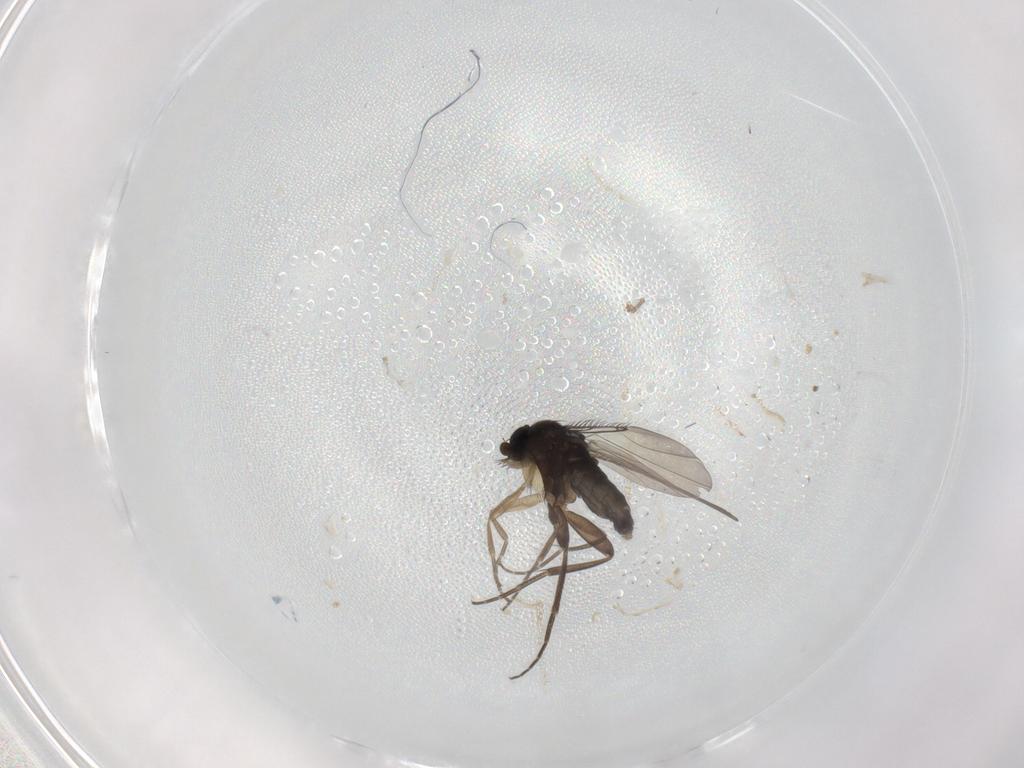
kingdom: Animalia
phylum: Arthropoda
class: Insecta
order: Diptera
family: Phoridae
